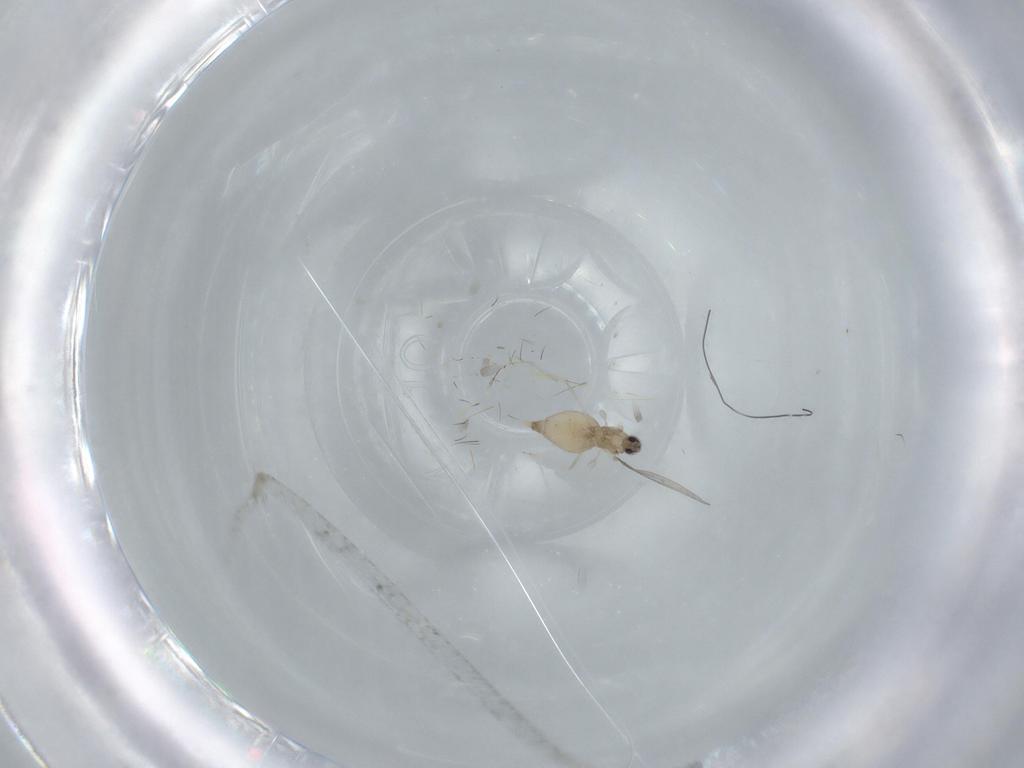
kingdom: Animalia
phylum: Arthropoda
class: Insecta
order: Diptera
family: Cecidomyiidae
